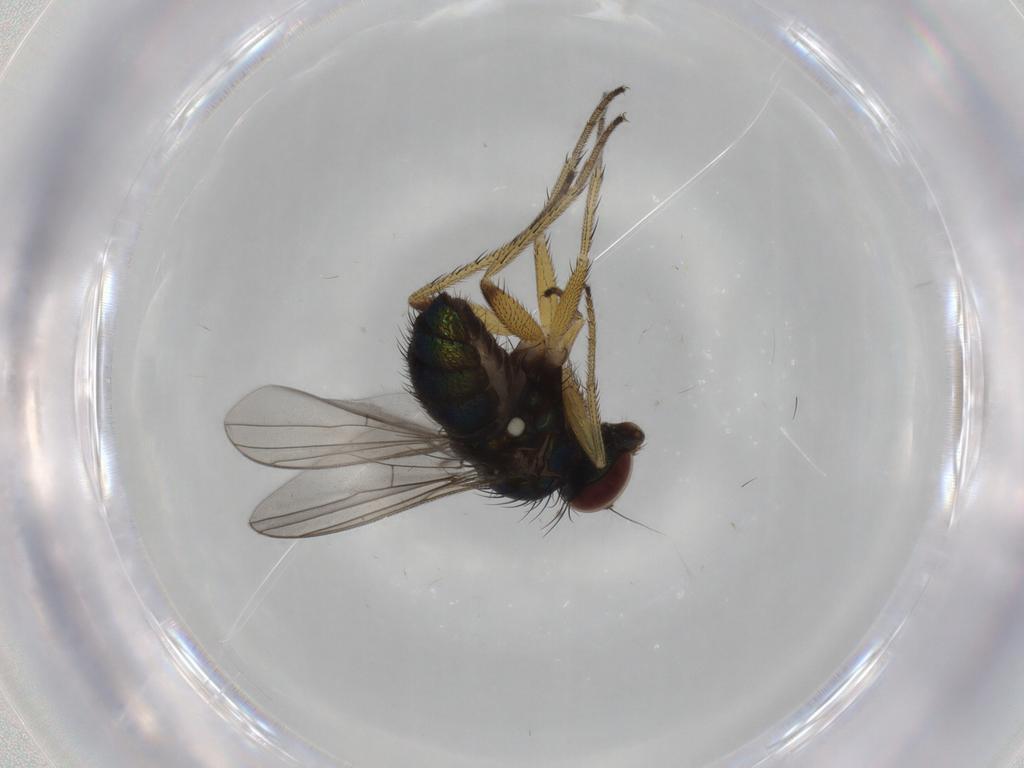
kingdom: Animalia
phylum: Arthropoda
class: Insecta
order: Diptera
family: Dolichopodidae
